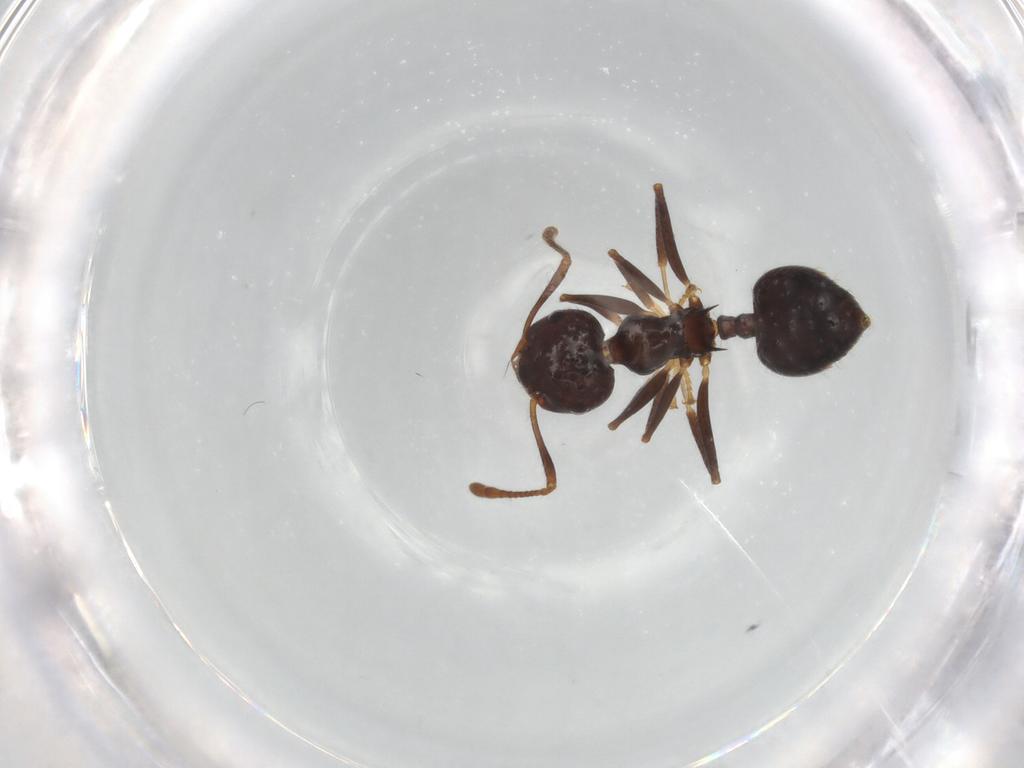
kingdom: Animalia
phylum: Arthropoda
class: Insecta
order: Hymenoptera
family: Formicidae
